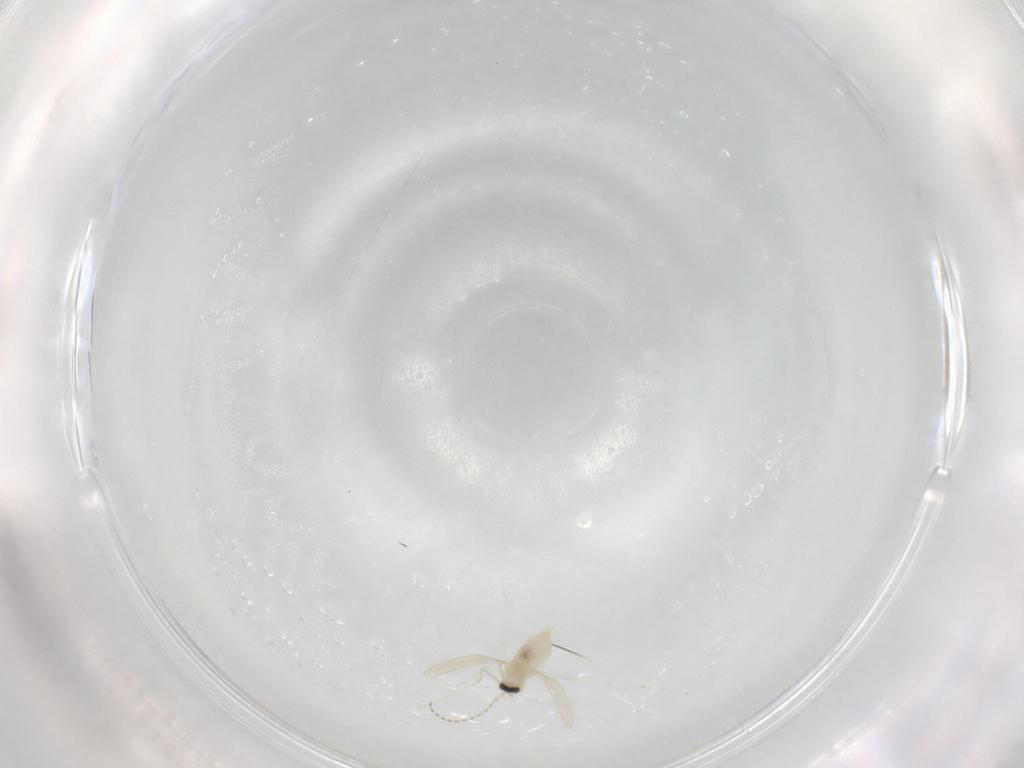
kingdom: Animalia
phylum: Arthropoda
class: Insecta
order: Diptera
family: Cecidomyiidae
